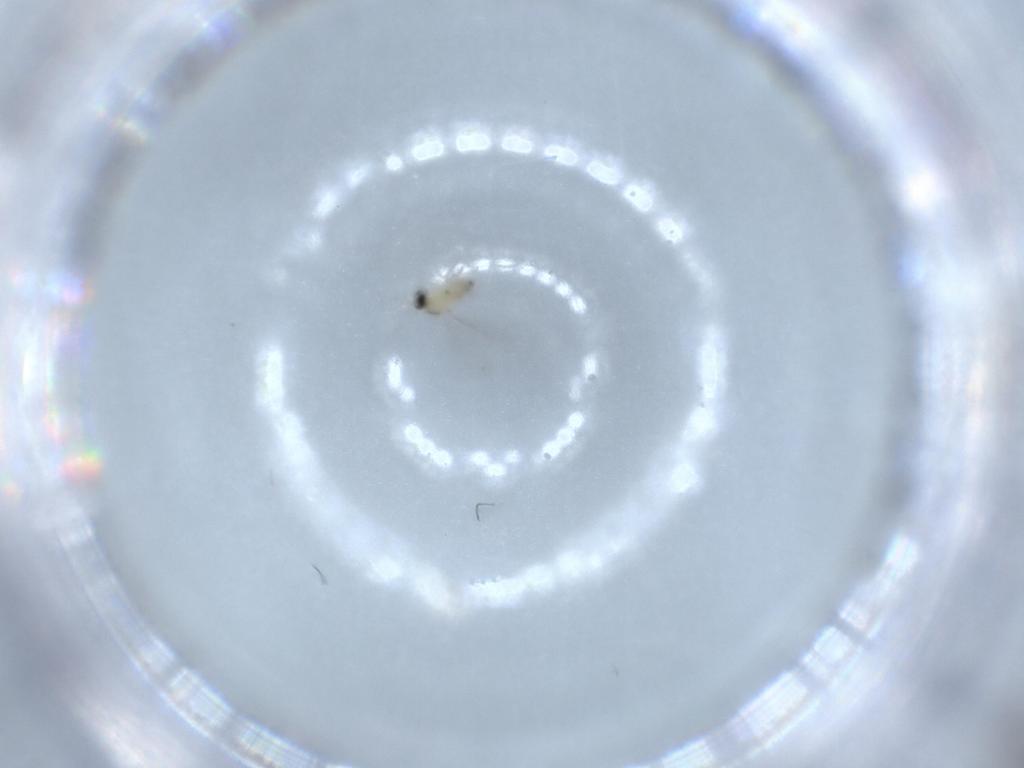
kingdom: Animalia
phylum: Arthropoda
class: Insecta
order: Diptera
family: Cecidomyiidae
